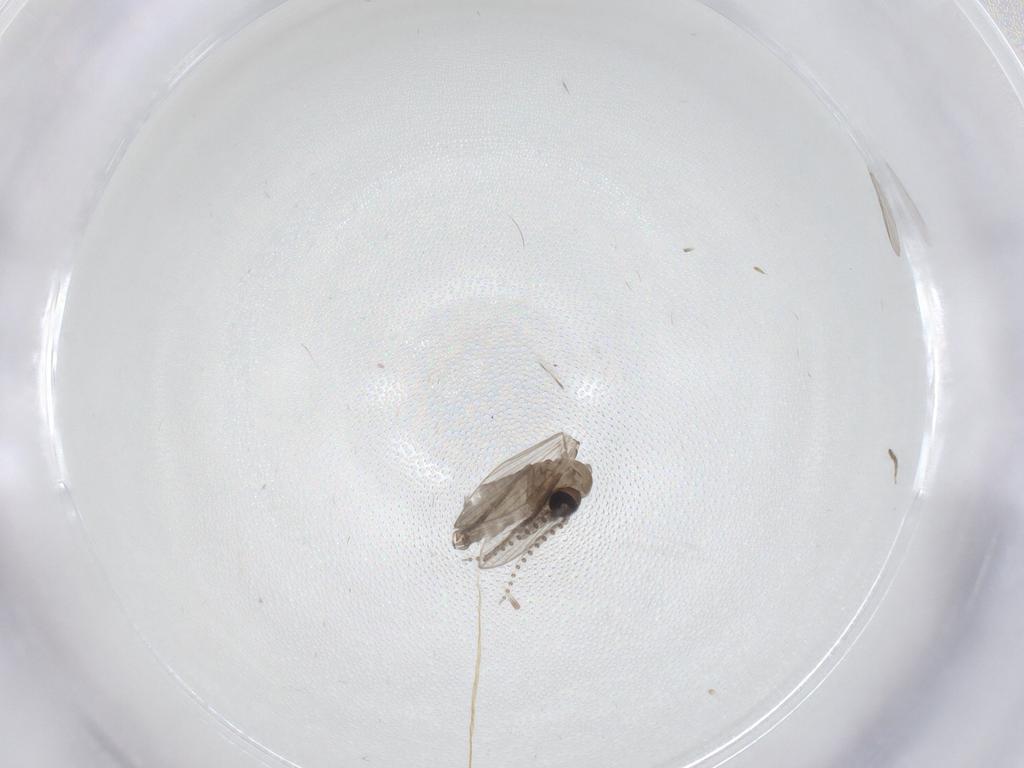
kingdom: Animalia
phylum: Arthropoda
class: Insecta
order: Diptera
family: Psychodidae
